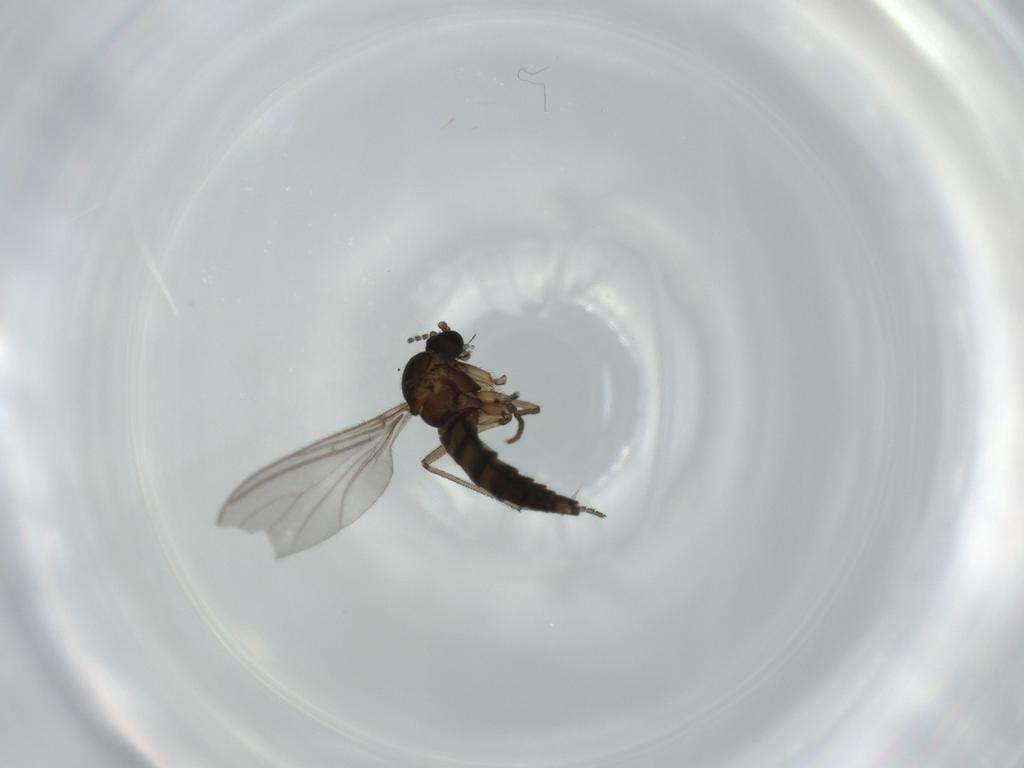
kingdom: Animalia
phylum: Arthropoda
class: Insecta
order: Diptera
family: Sciaridae
